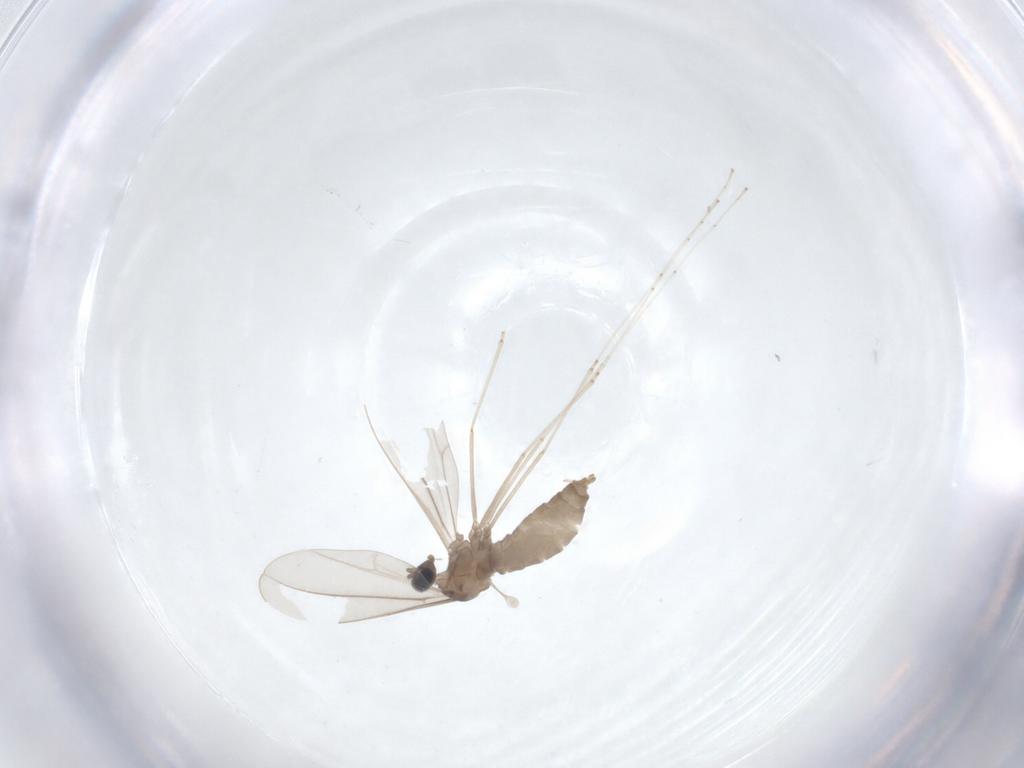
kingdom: Animalia
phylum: Arthropoda
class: Insecta
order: Diptera
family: Cecidomyiidae
